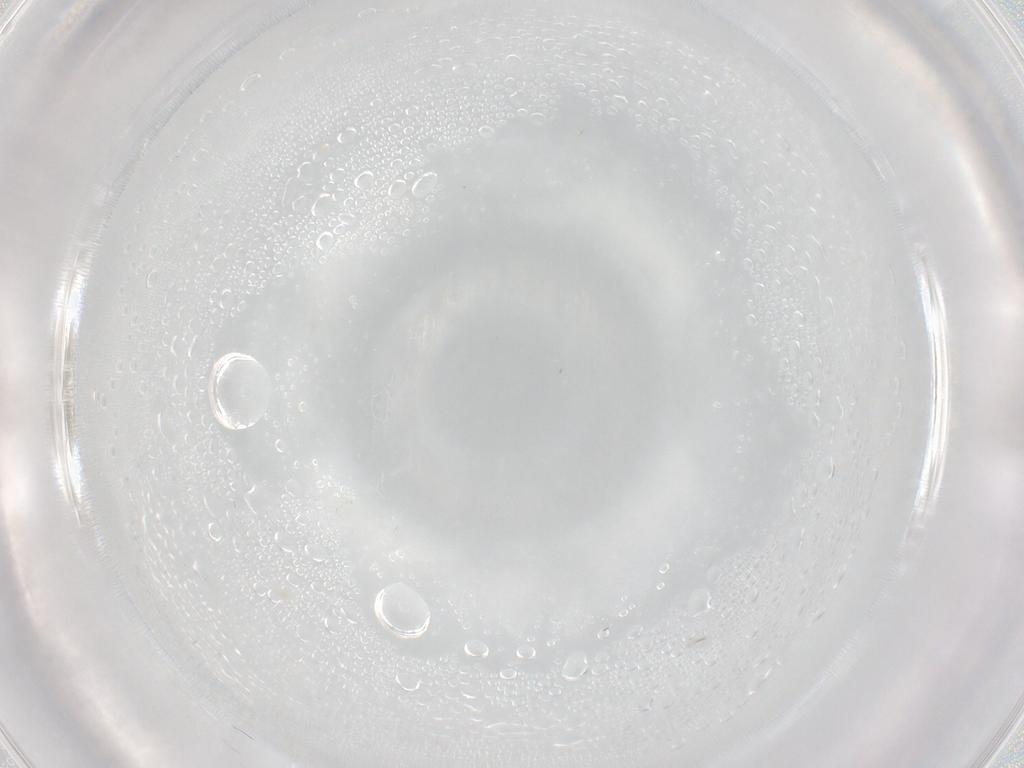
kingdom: Animalia
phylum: Arthropoda
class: Arachnida
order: Trombidiformes
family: Cunaxidae
